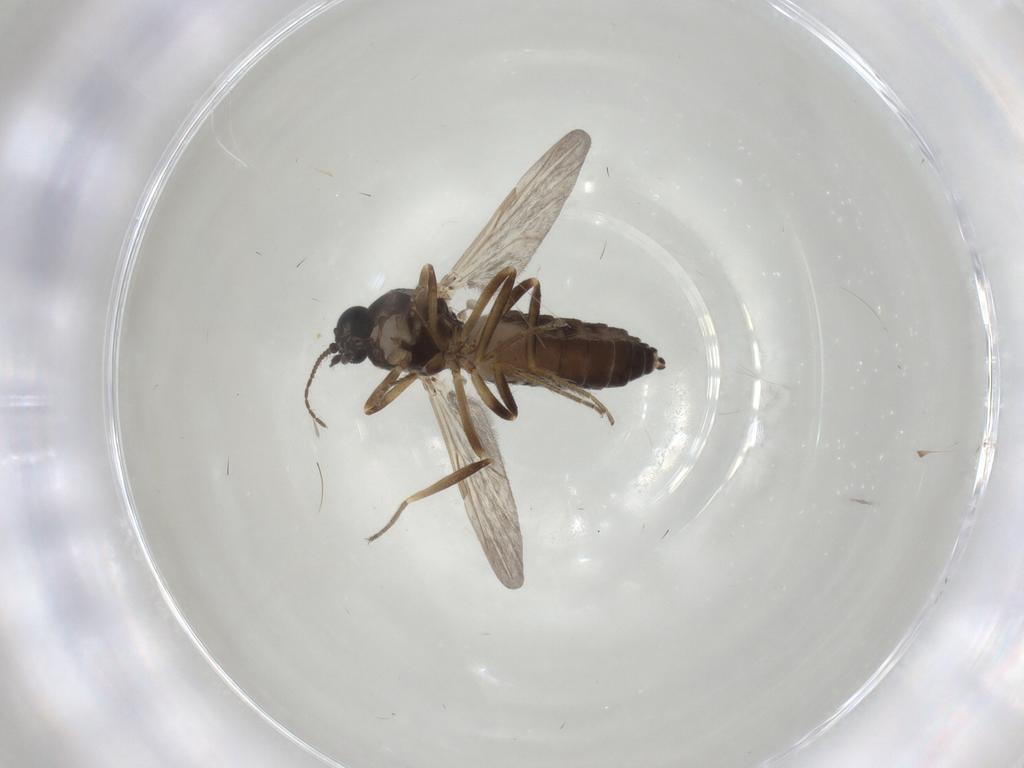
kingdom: Animalia
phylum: Arthropoda
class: Insecta
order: Diptera
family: Ceratopogonidae
